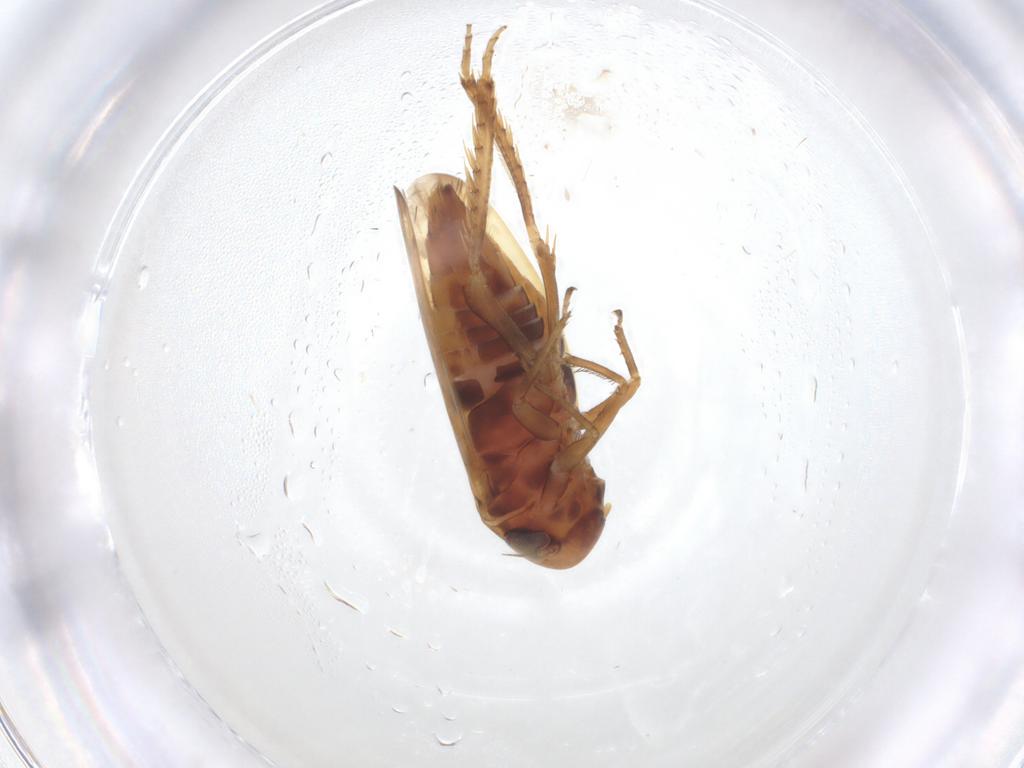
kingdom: Animalia
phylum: Arthropoda
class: Insecta
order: Hemiptera
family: Cicadellidae
